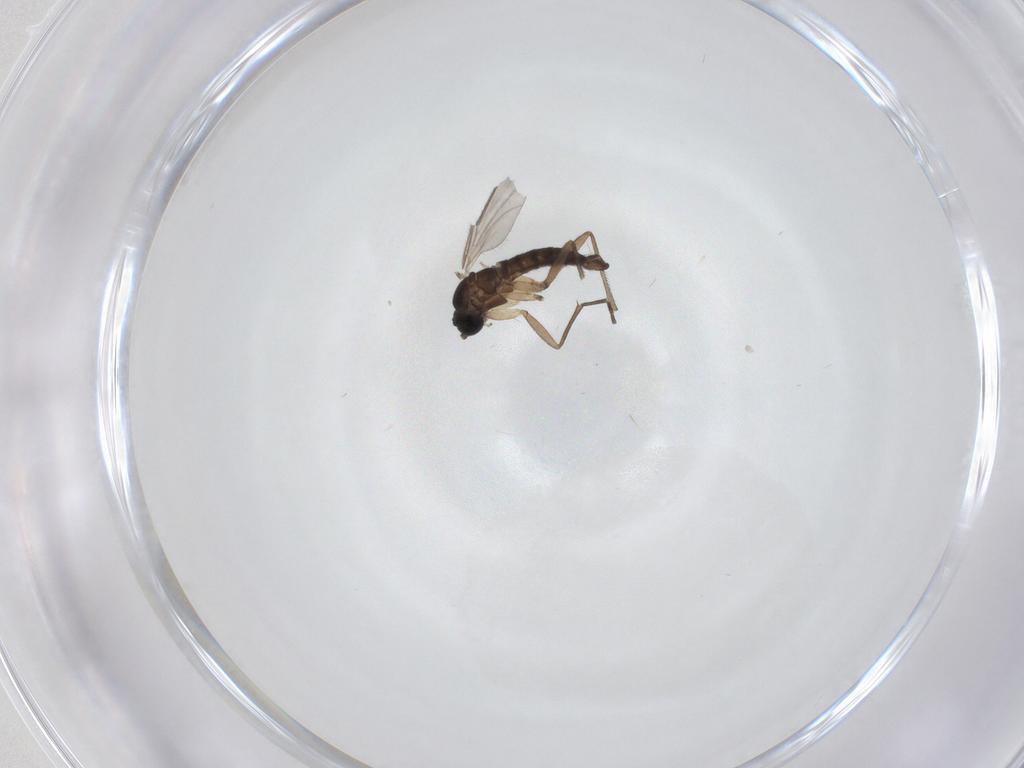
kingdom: Animalia
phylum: Arthropoda
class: Insecta
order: Diptera
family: Sciaridae
